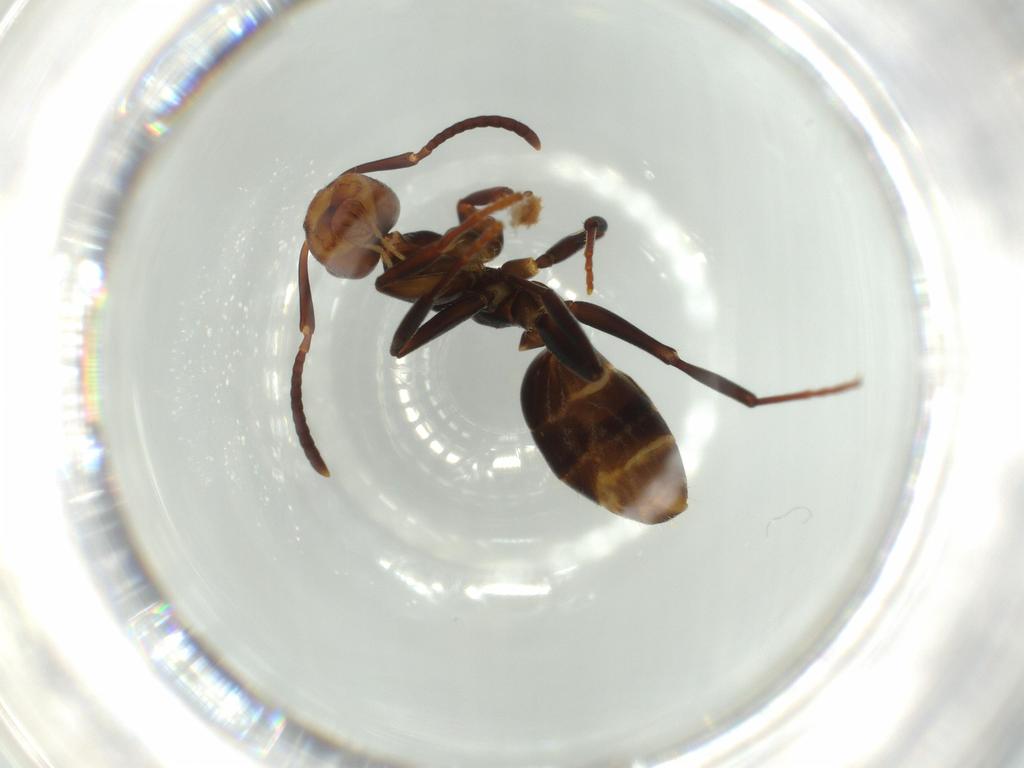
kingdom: Animalia
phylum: Arthropoda
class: Insecta
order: Hymenoptera
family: Formicidae
